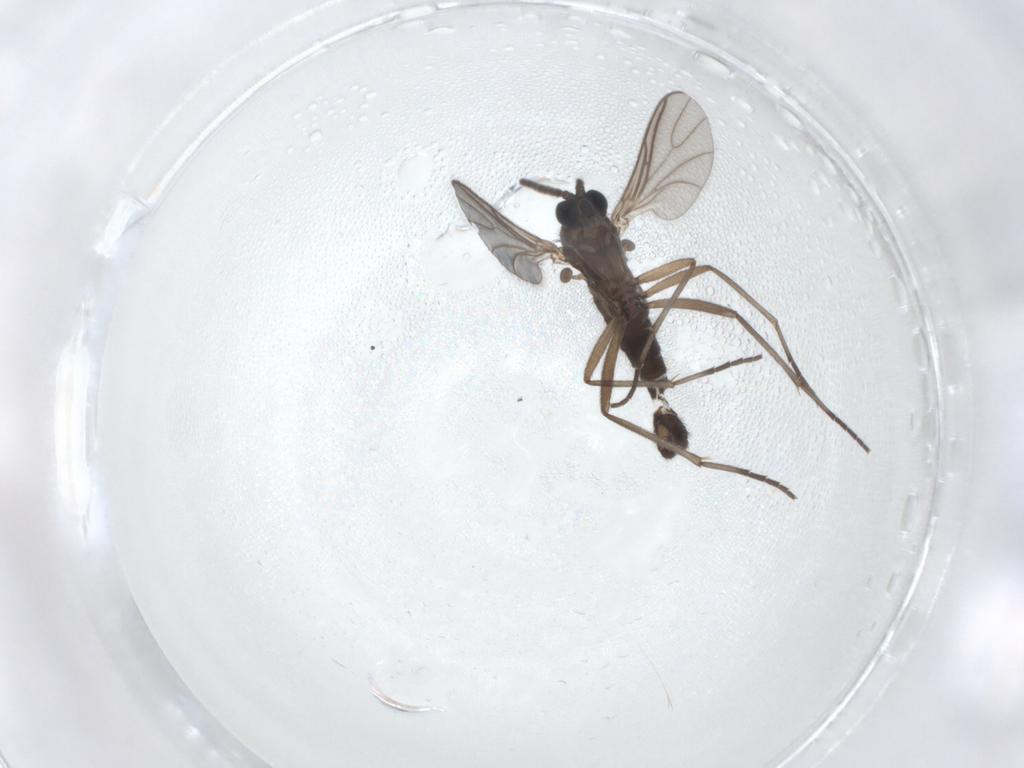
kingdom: Animalia
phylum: Arthropoda
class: Insecta
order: Diptera
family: Sciaridae
